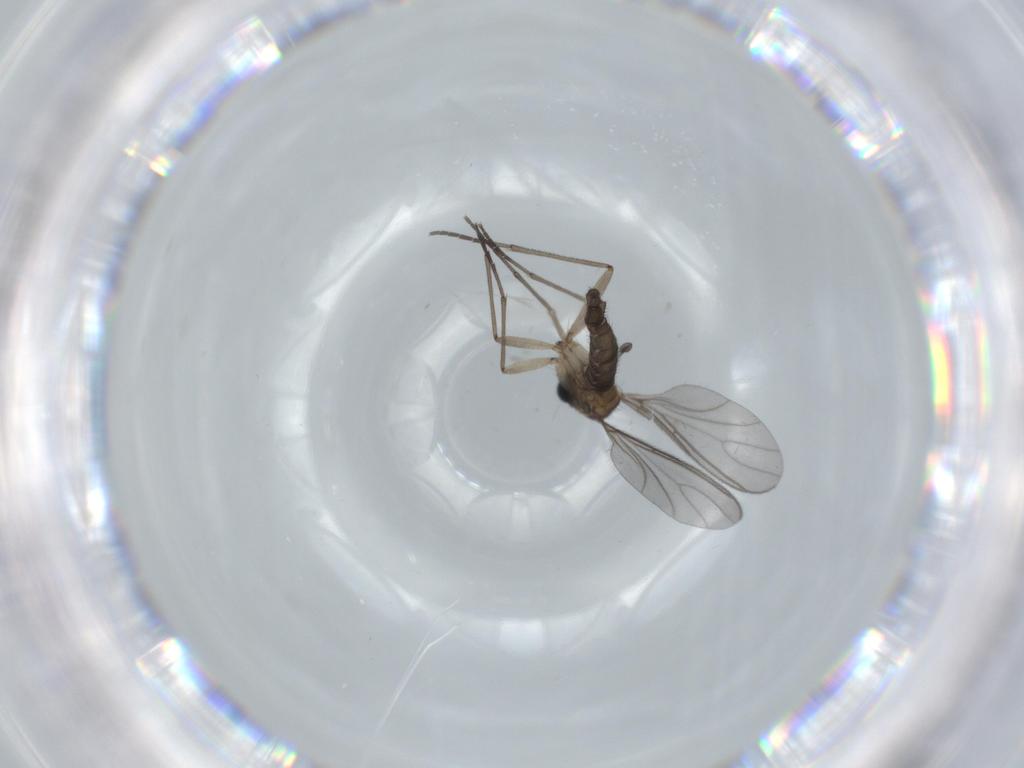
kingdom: Animalia
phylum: Arthropoda
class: Insecta
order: Diptera
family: Sciaridae
